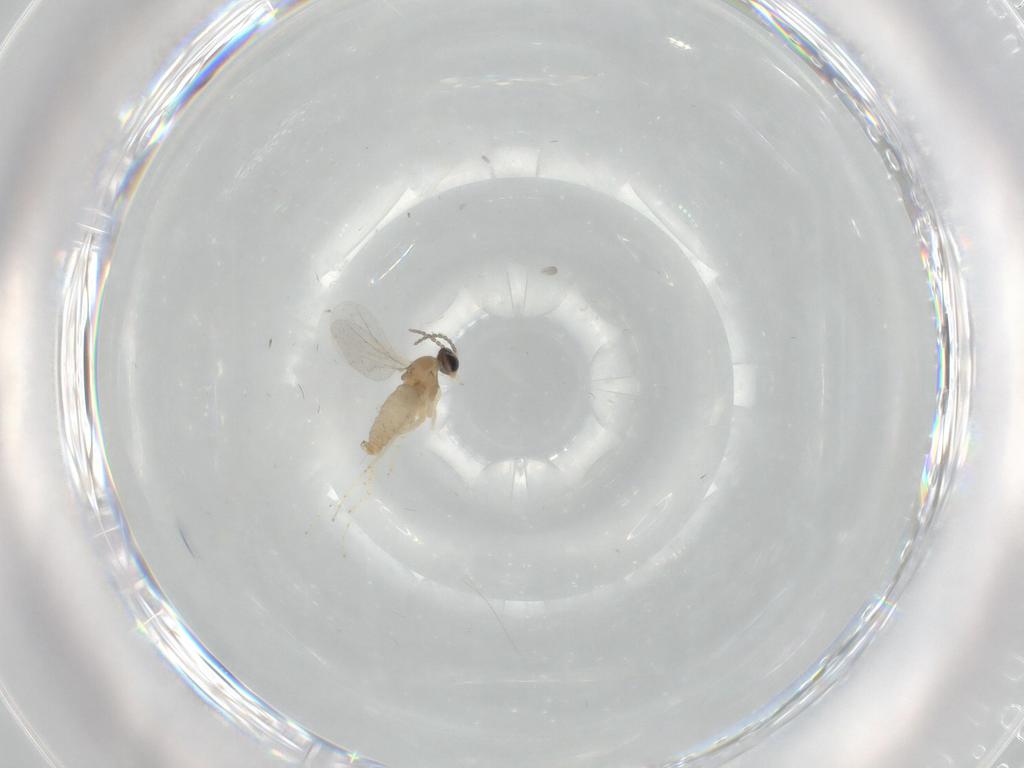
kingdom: Animalia
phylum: Arthropoda
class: Insecta
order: Diptera
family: Cecidomyiidae
